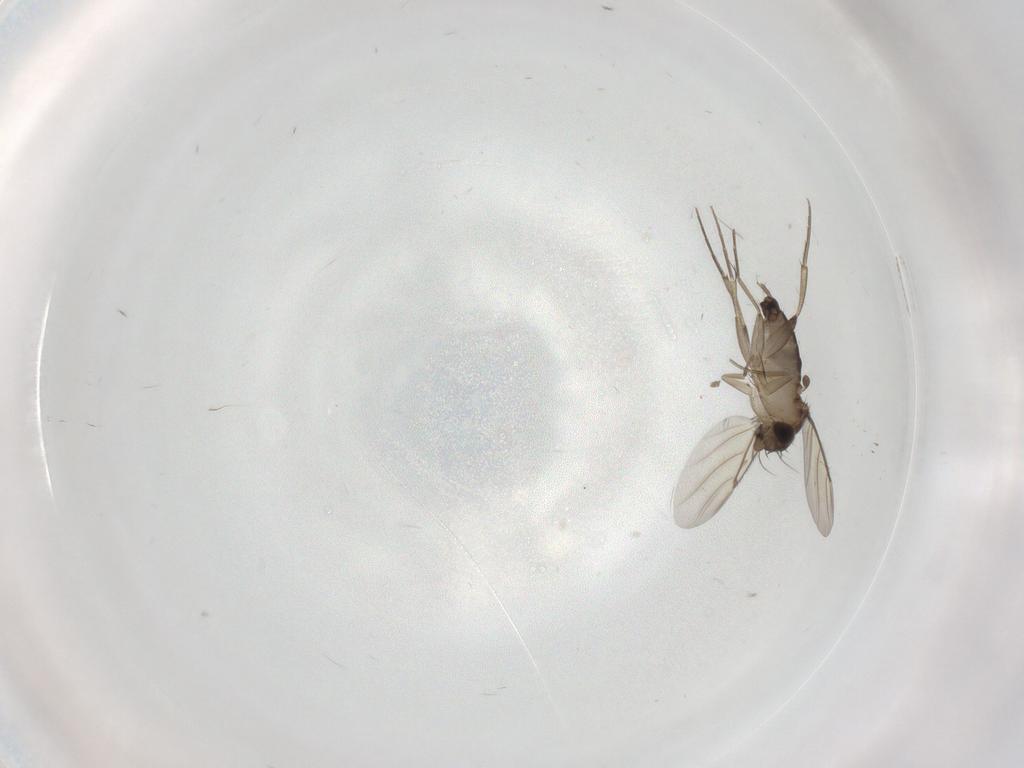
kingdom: Animalia
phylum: Arthropoda
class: Insecta
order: Diptera
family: Phoridae
